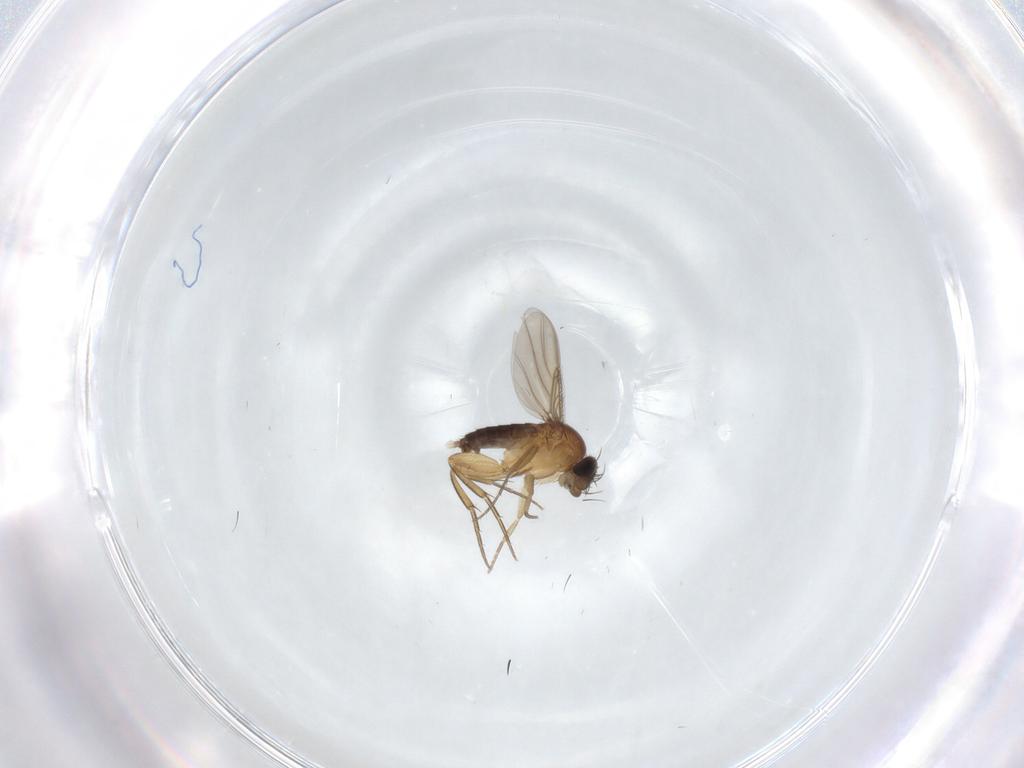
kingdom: Animalia
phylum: Arthropoda
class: Insecta
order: Diptera
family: Phoridae
